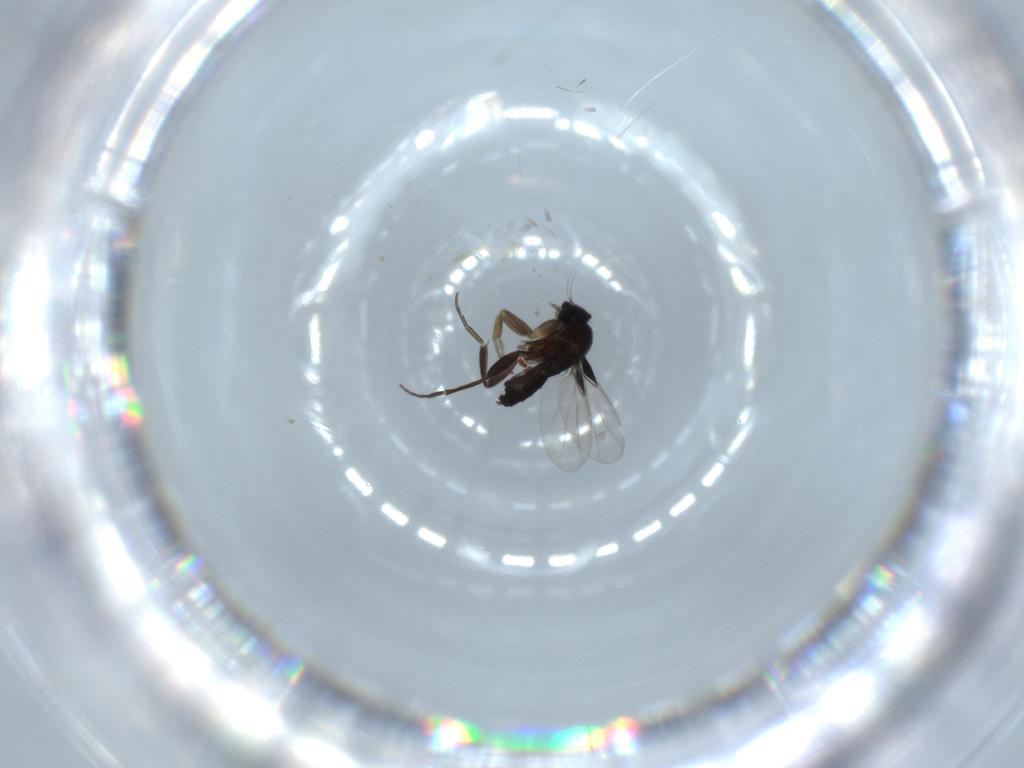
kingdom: Animalia
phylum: Arthropoda
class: Insecta
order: Diptera
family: Phoridae
